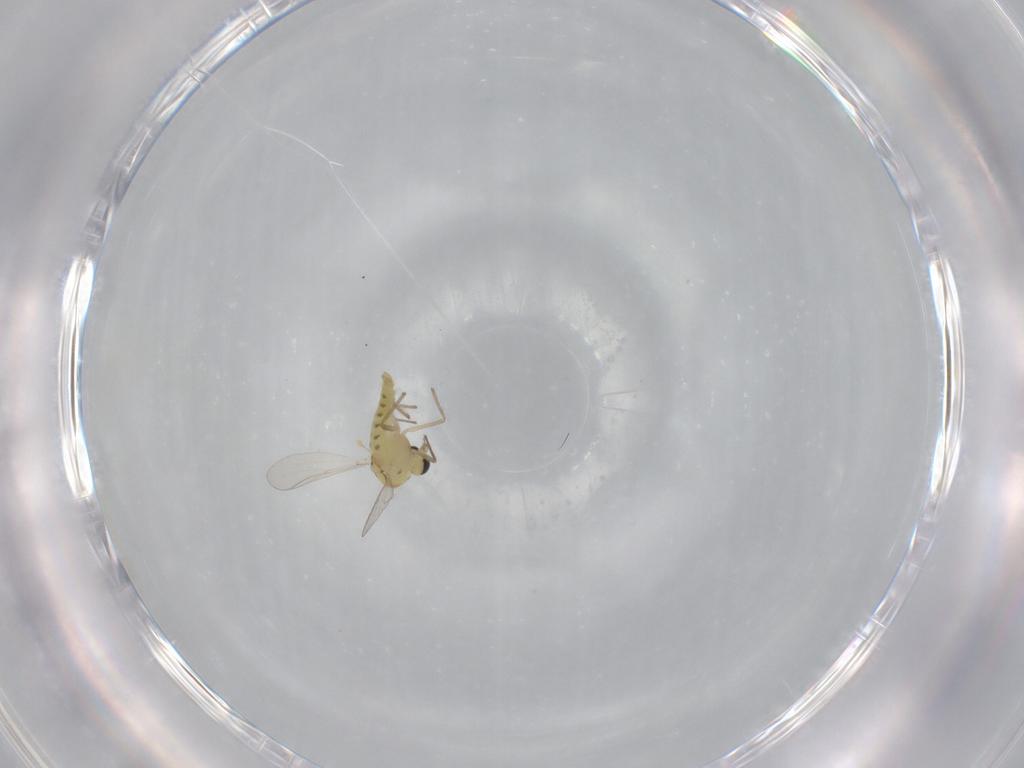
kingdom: Animalia
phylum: Arthropoda
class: Insecta
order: Diptera
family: Chironomidae
